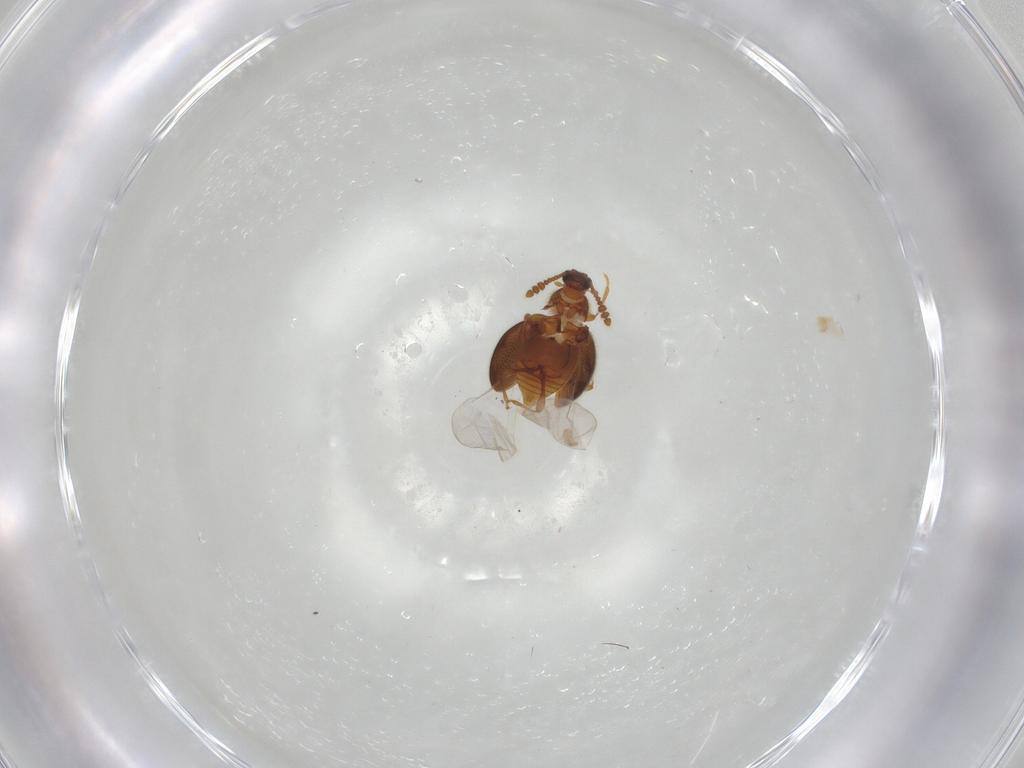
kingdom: Animalia
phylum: Arthropoda
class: Insecta
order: Coleoptera
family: Staphylinidae
